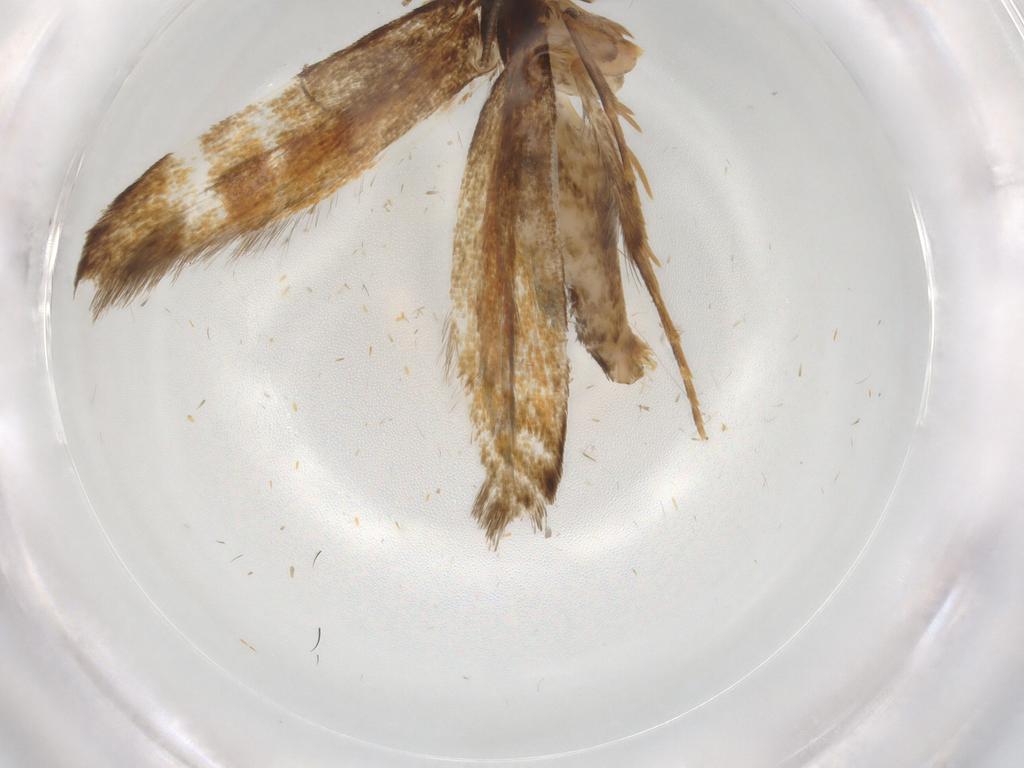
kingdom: Animalia
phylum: Arthropoda
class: Insecta
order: Lepidoptera
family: Tineidae
